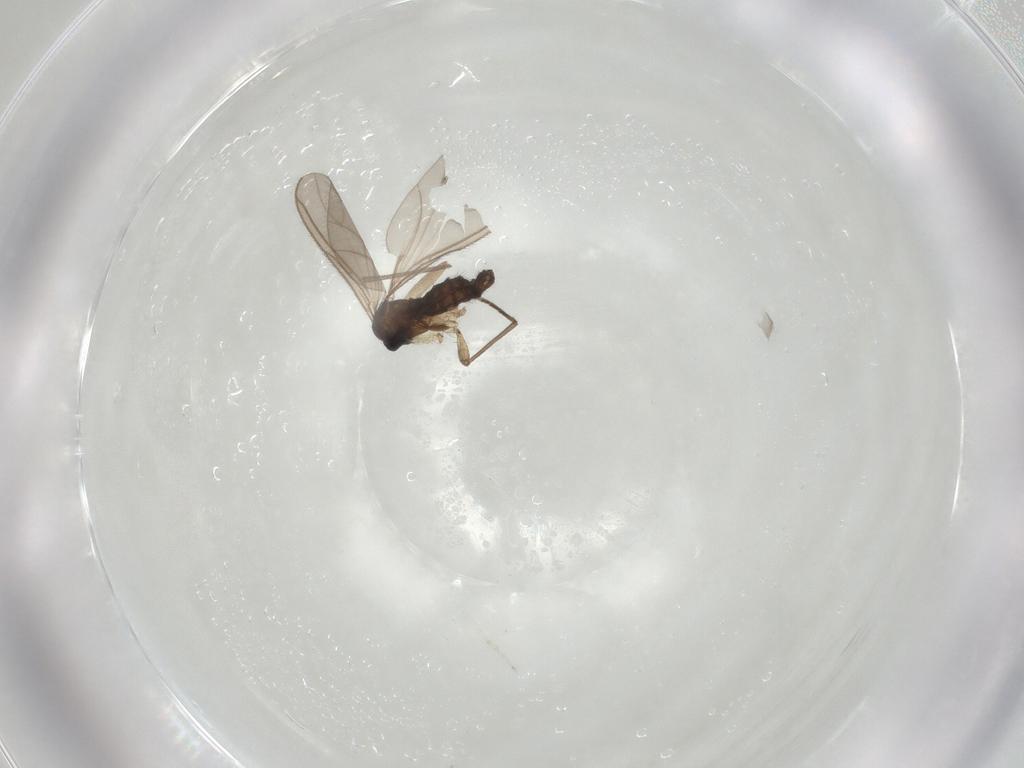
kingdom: Animalia
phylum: Arthropoda
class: Insecta
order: Diptera
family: Sciaridae
